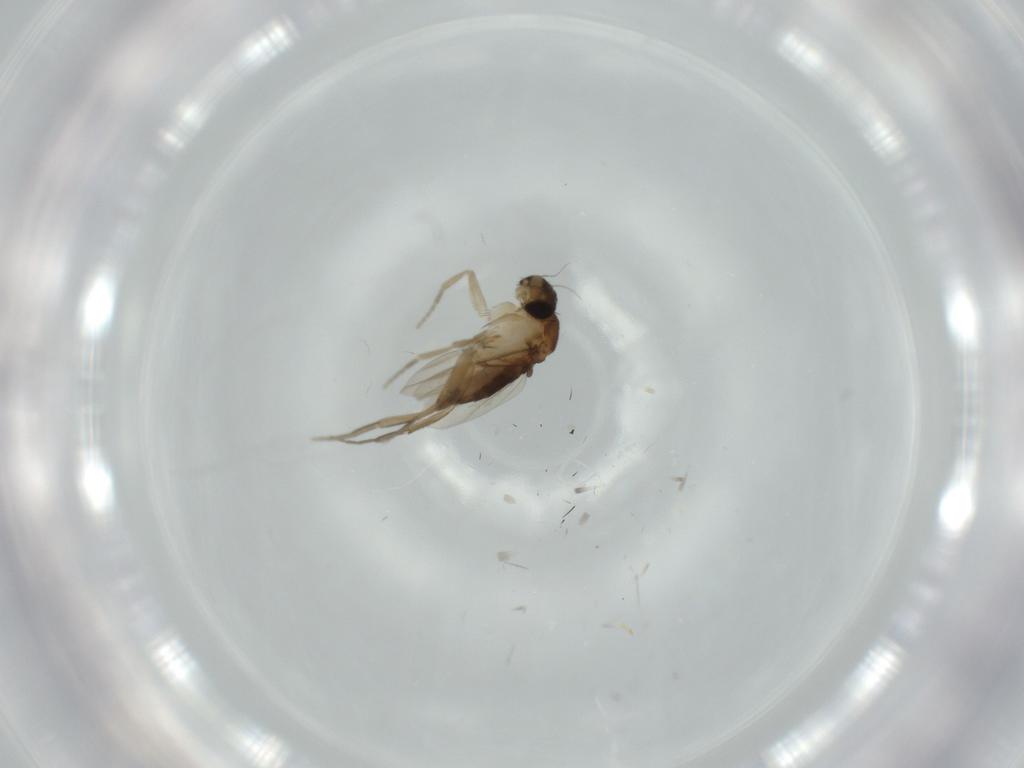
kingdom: Animalia
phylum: Arthropoda
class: Insecta
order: Diptera
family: Phoridae
